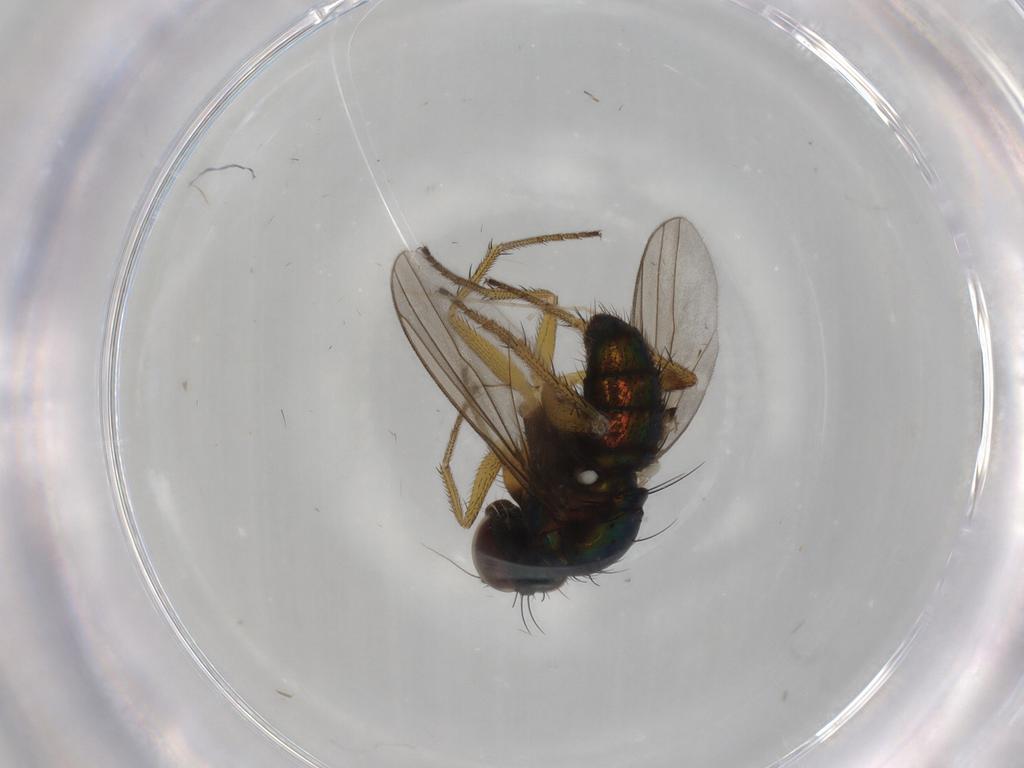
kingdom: Animalia
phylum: Arthropoda
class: Insecta
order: Diptera
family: Dolichopodidae
